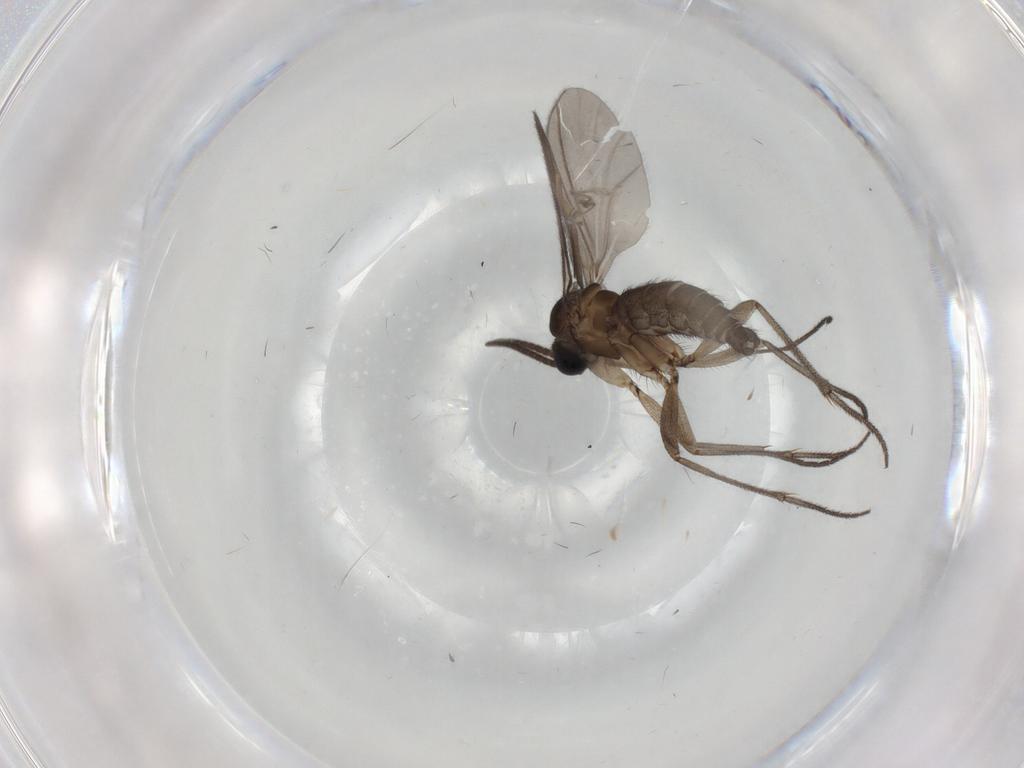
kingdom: Animalia
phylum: Arthropoda
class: Insecta
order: Diptera
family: Sciaridae
